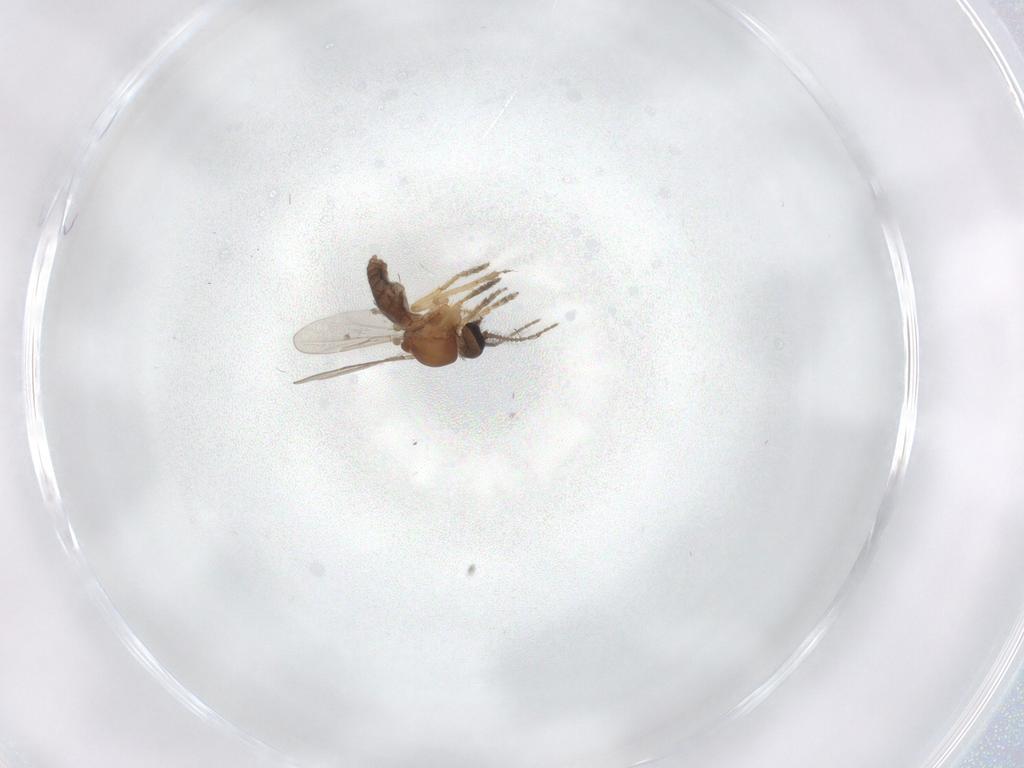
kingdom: Animalia
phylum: Arthropoda
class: Insecta
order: Diptera
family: Ceratopogonidae
